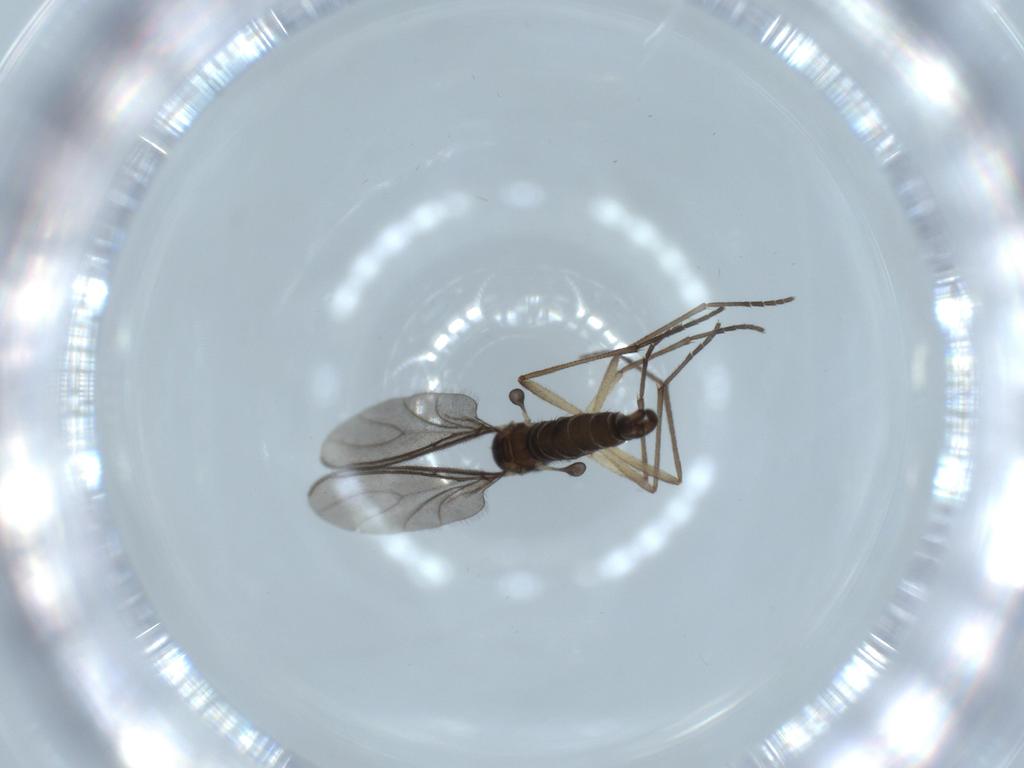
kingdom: Animalia
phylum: Arthropoda
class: Insecta
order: Diptera
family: Sciaridae
